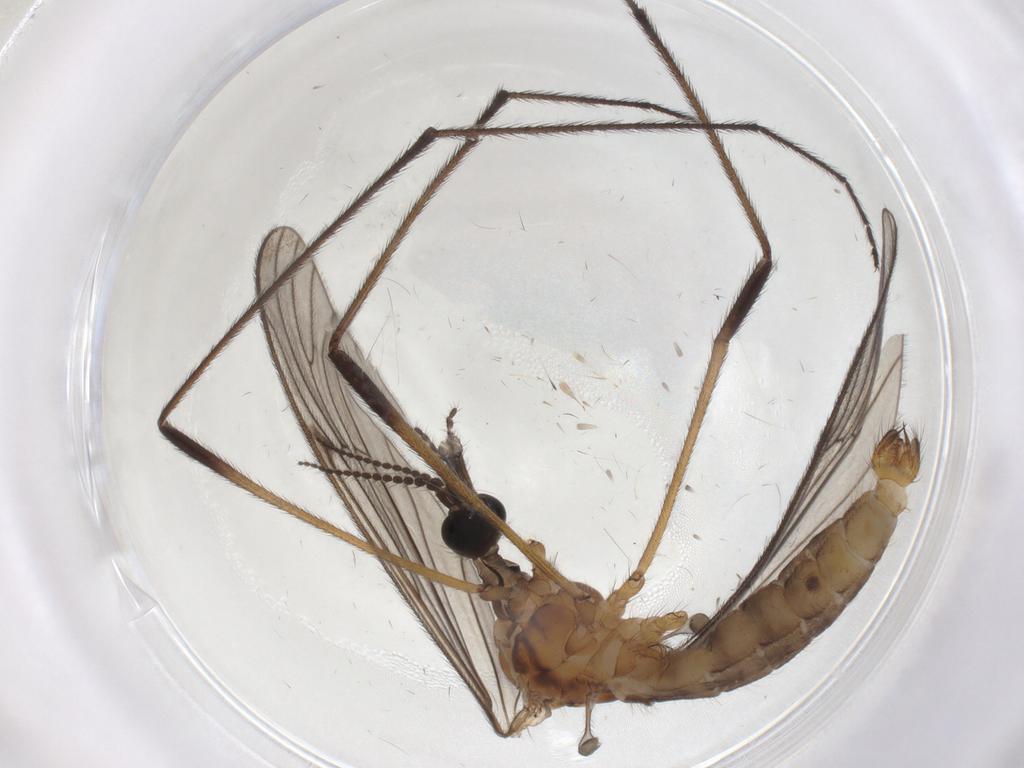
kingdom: Animalia
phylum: Arthropoda
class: Insecta
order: Diptera
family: Limoniidae
